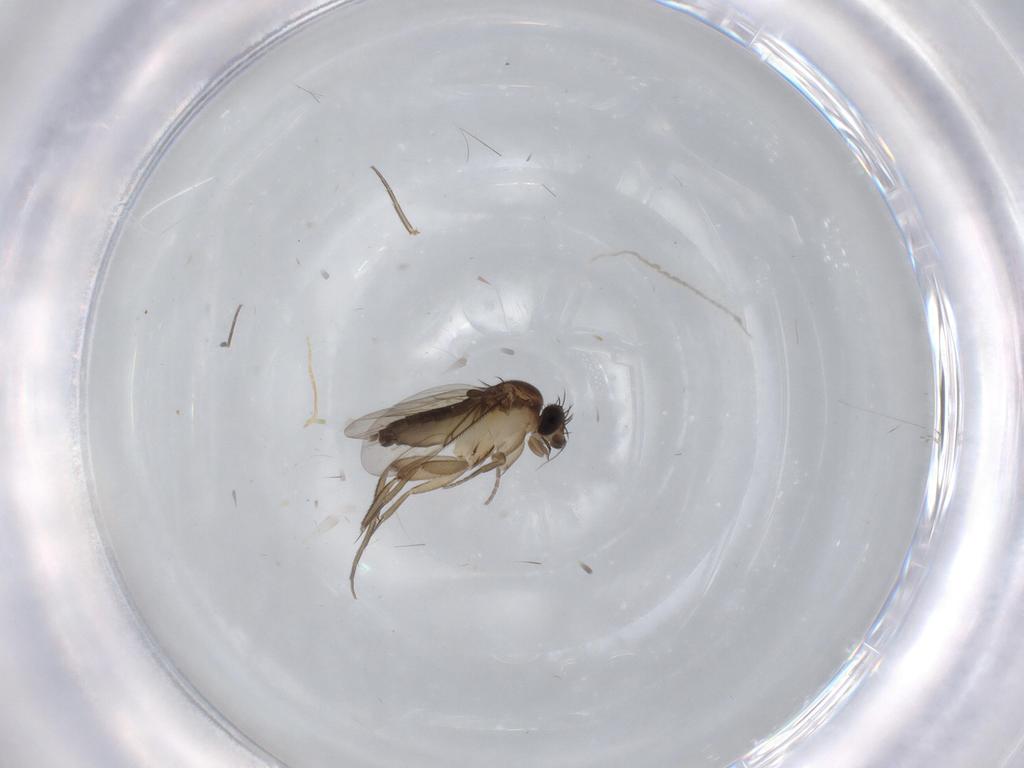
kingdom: Animalia
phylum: Arthropoda
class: Insecta
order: Diptera
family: Phoridae
